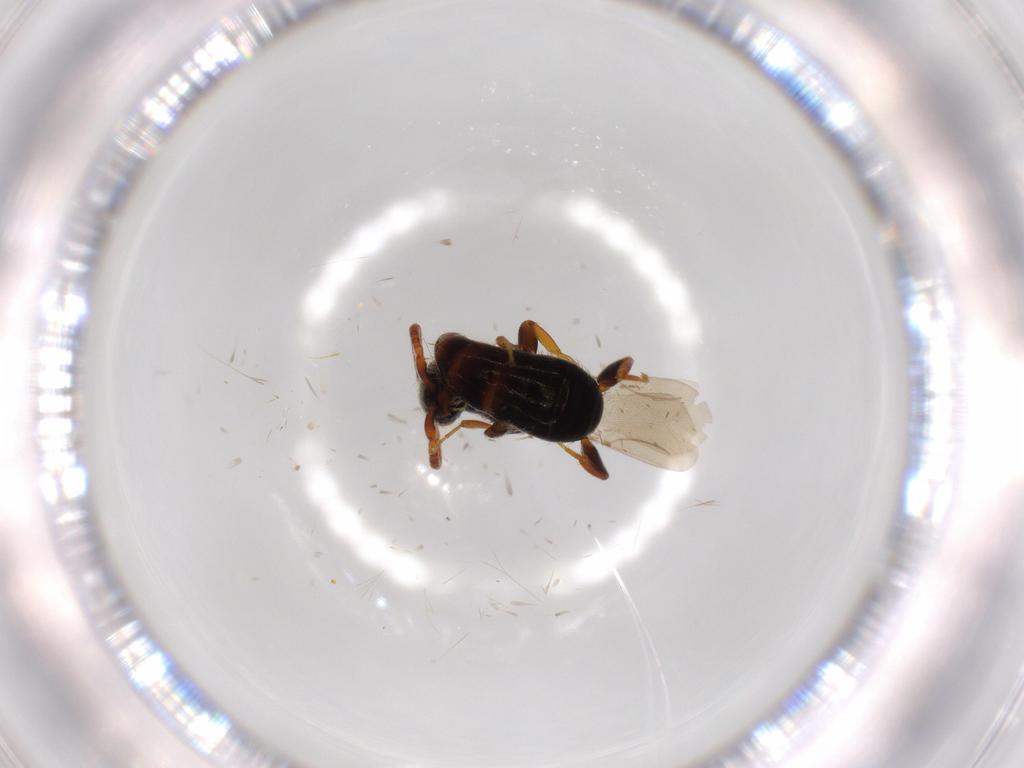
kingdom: Animalia
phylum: Arthropoda
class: Insecta
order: Hymenoptera
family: Bethylidae
